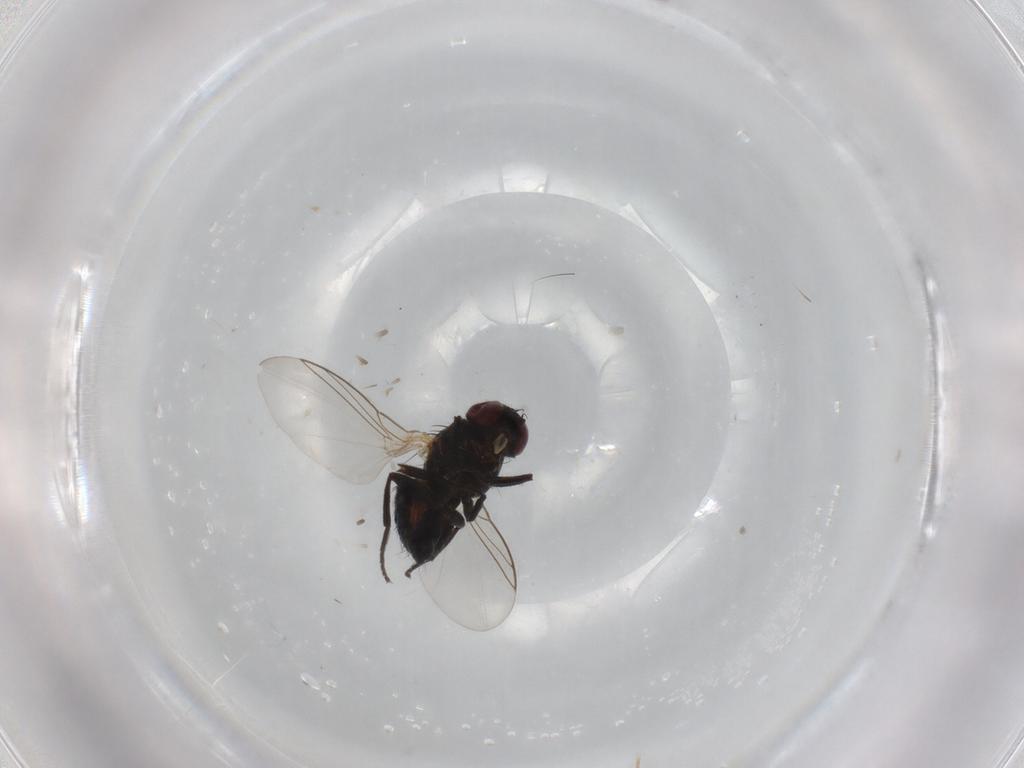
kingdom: Animalia
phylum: Arthropoda
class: Insecta
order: Diptera
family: Agromyzidae
